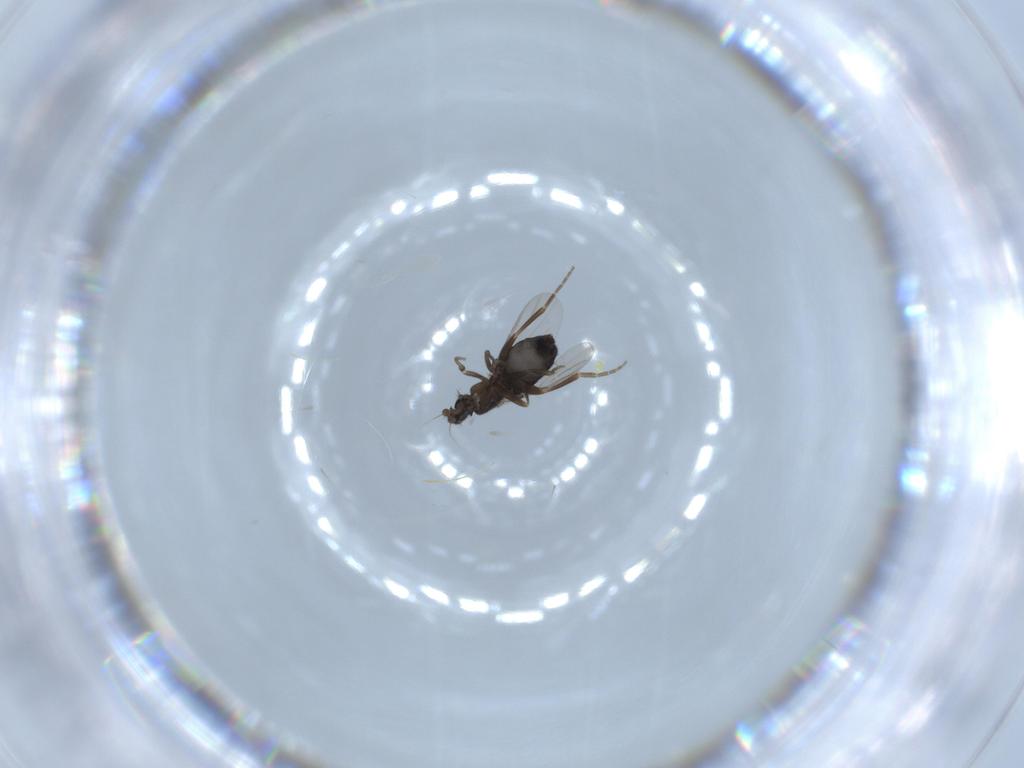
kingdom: Animalia
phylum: Arthropoda
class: Insecta
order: Diptera
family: Phoridae
